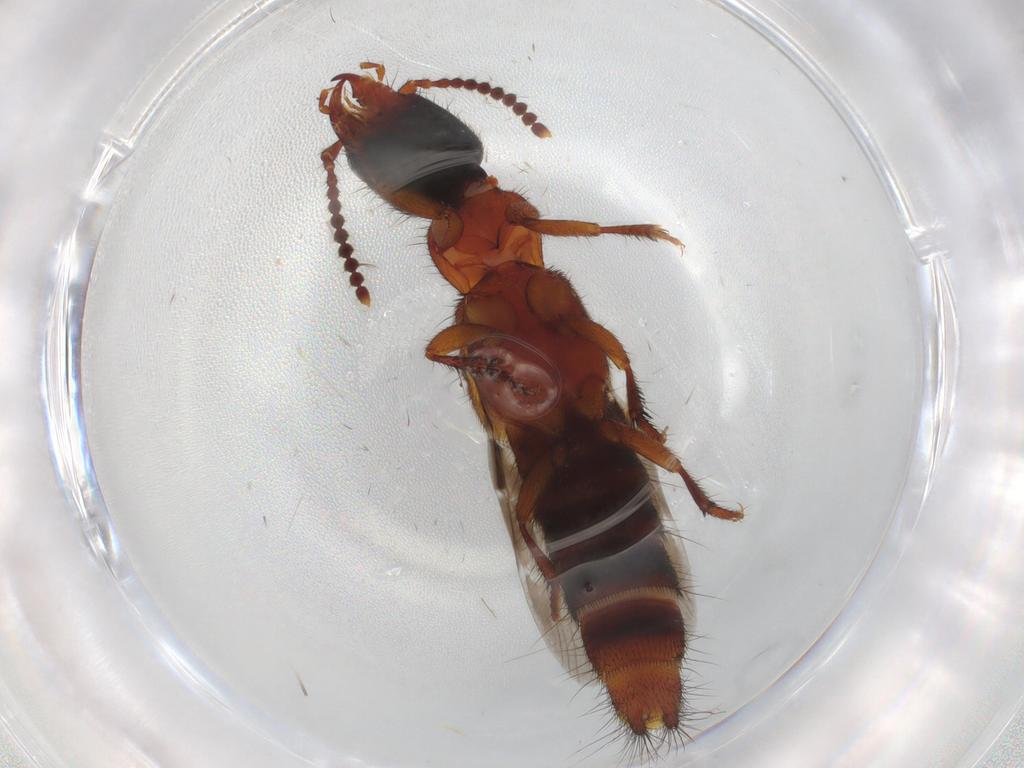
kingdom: Animalia
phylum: Arthropoda
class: Insecta
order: Coleoptera
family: Staphylinidae
